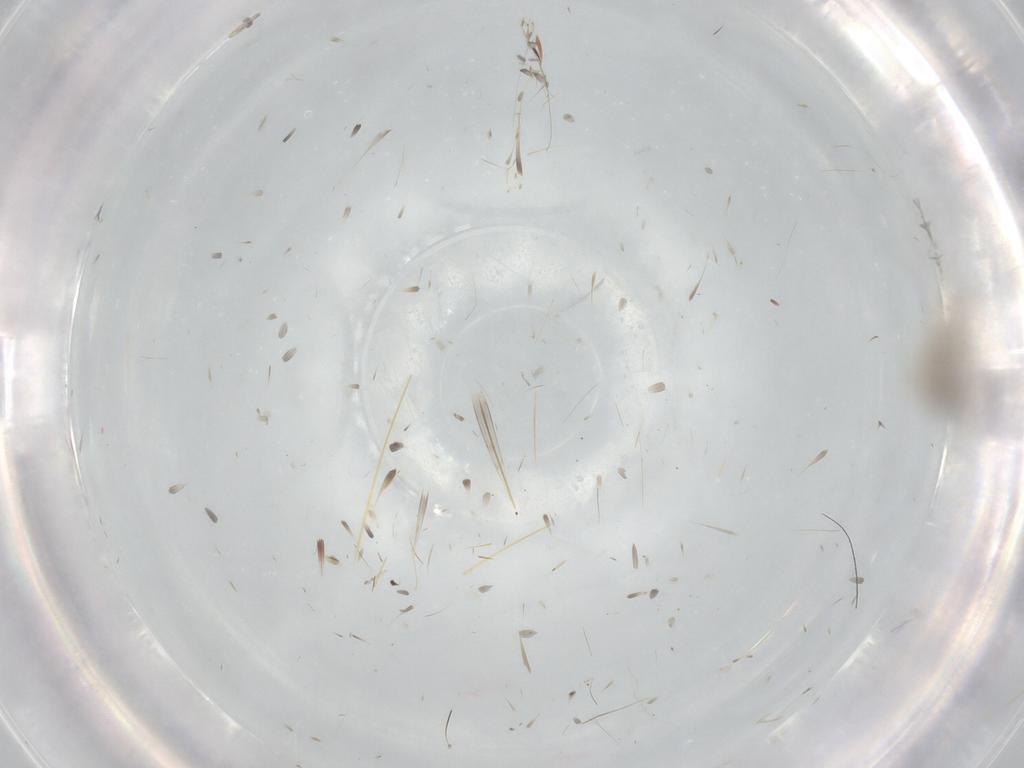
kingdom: Animalia
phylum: Arthropoda
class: Insecta
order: Diptera
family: Cecidomyiidae
